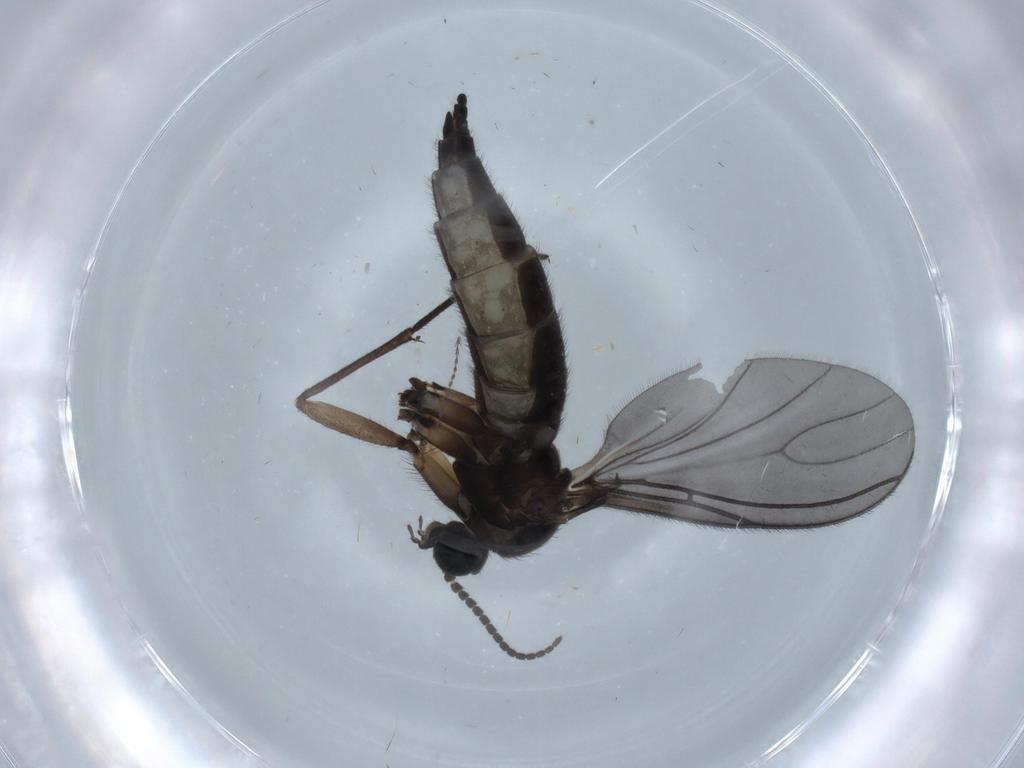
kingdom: Animalia
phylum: Arthropoda
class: Insecta
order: Diptera
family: Sciaridae
